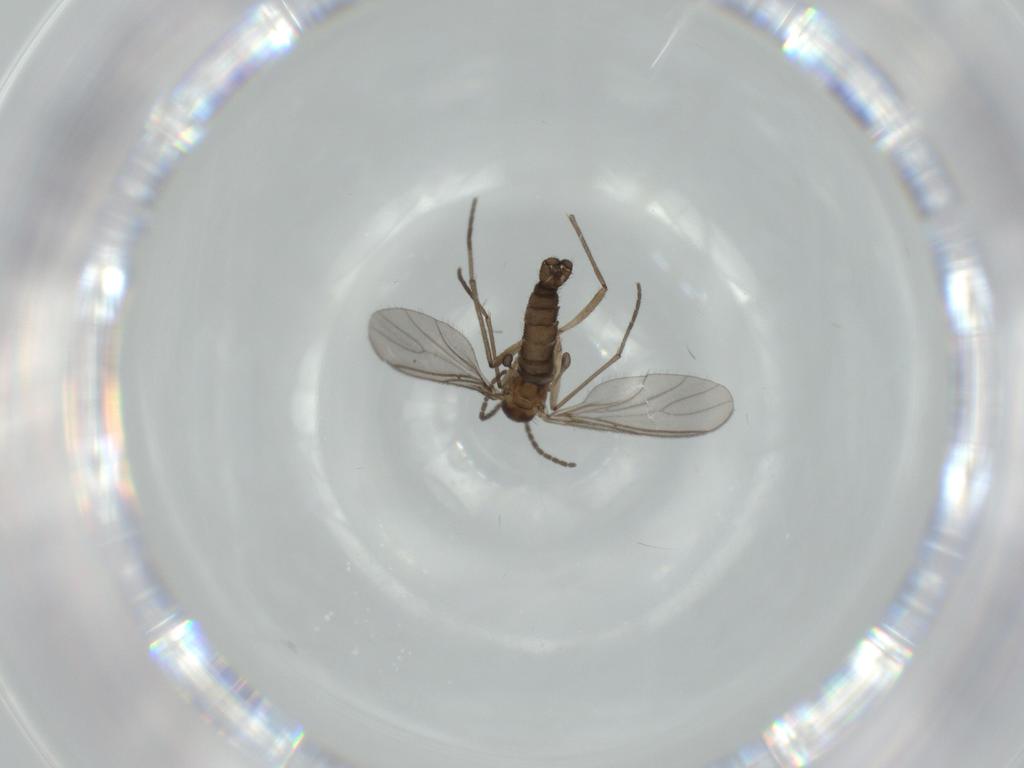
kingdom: Animalia
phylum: Arthropoda
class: Insecta
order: Diptera
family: Sciaridae
